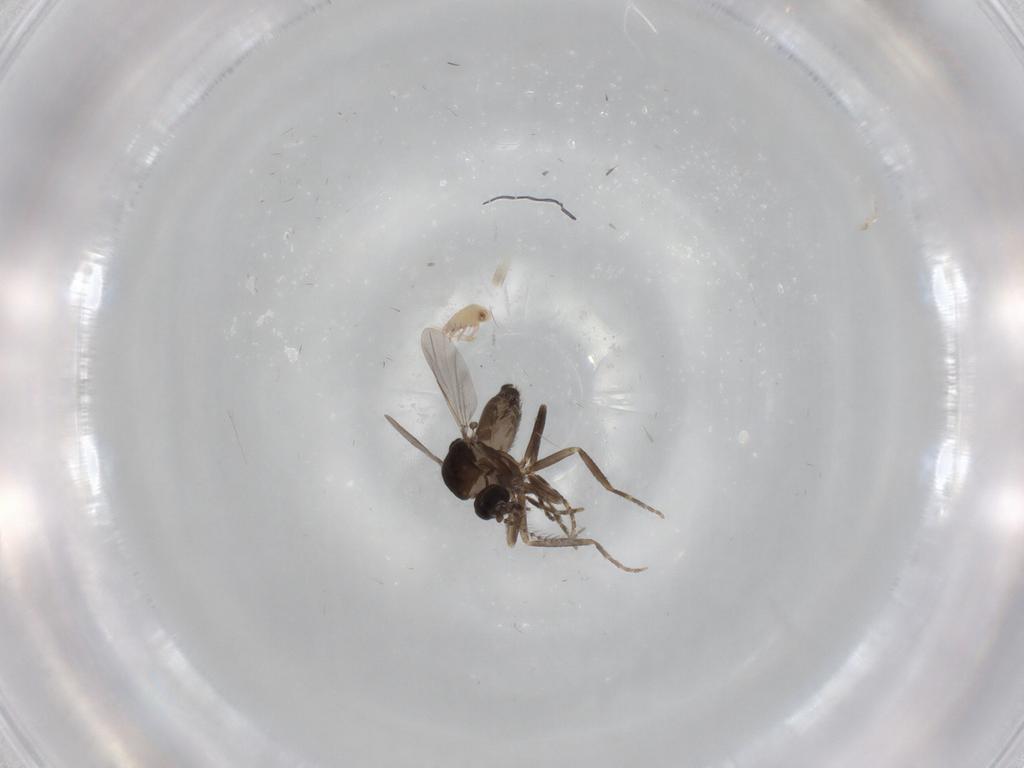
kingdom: Animalia
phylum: Arthropoda
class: Insecta
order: Diptera
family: Ceratopogonidae
